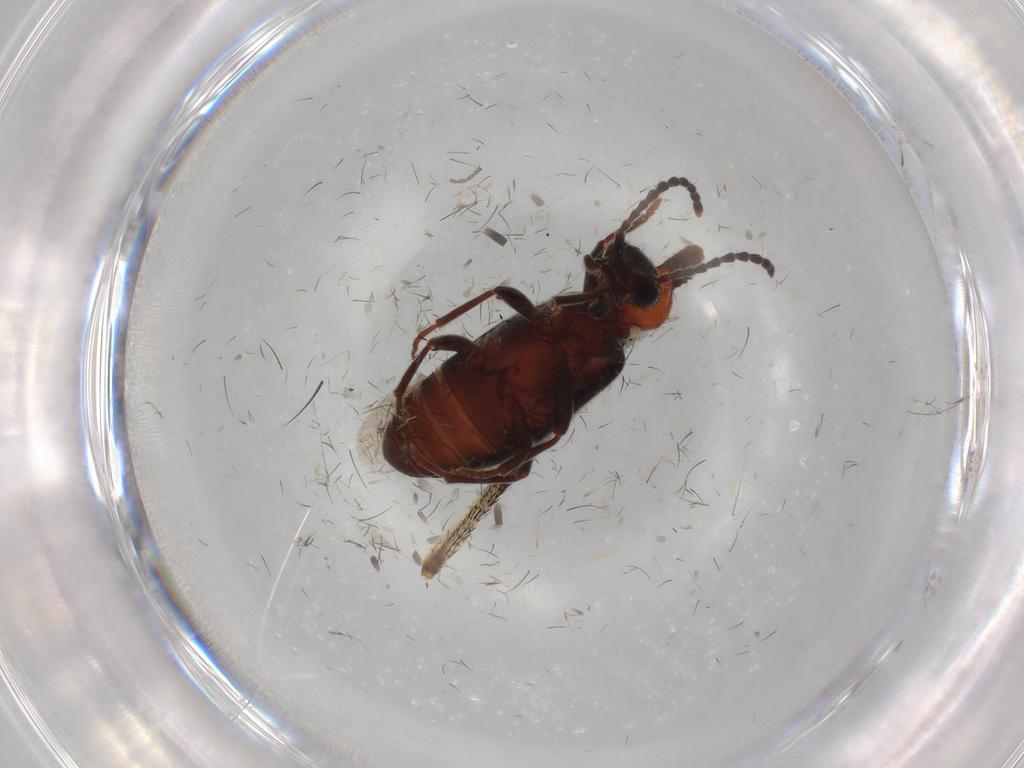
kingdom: Animalia
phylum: Arthropoda
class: Insecta
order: Coleoptera
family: Anthicidae
